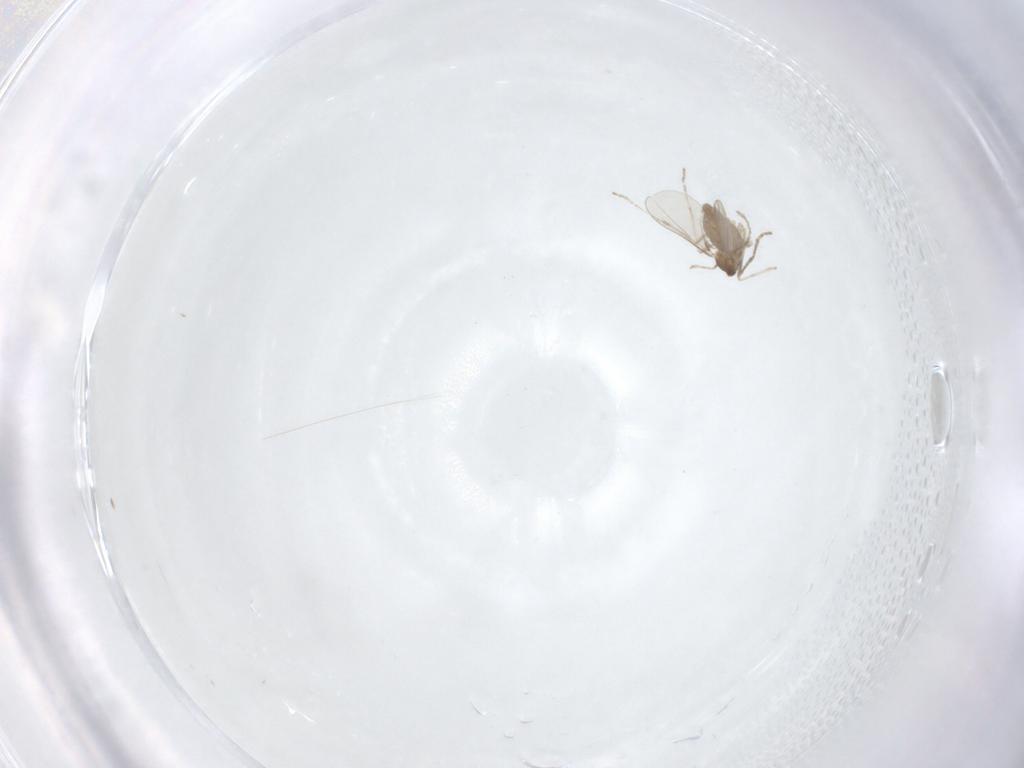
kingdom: Animalia
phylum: Arthropoda
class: Insecta
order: Diptera
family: Cecidomyiidae
